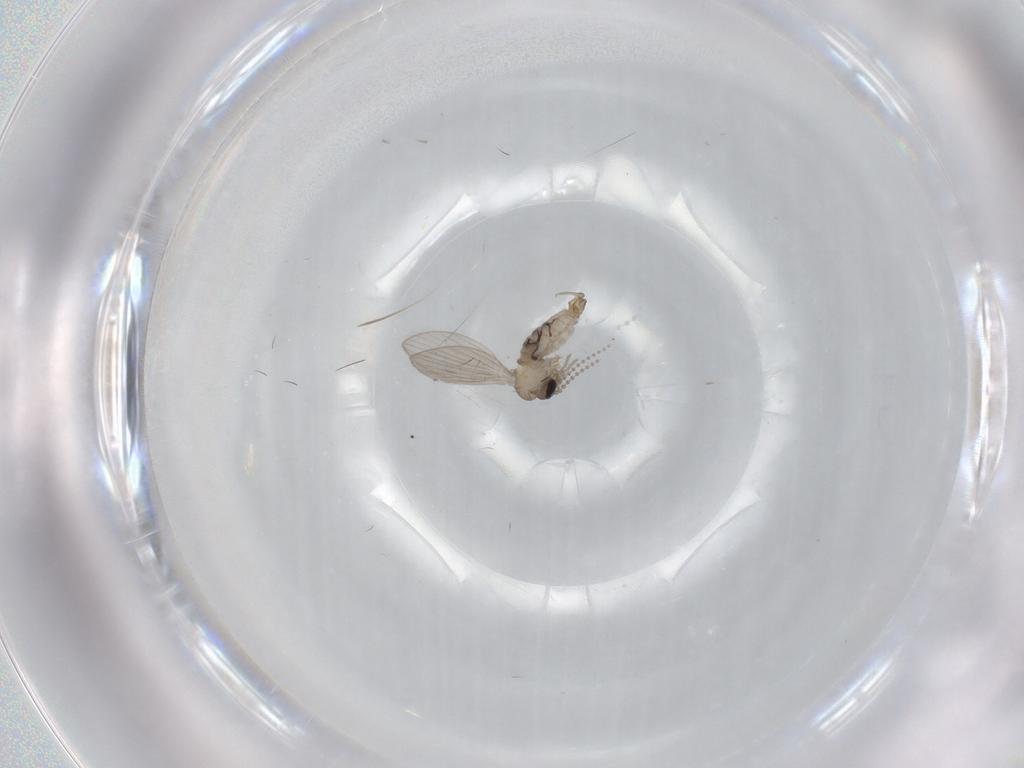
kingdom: Animalia
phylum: Arthropoda
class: Insecta
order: Diptera
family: Psychodidae
